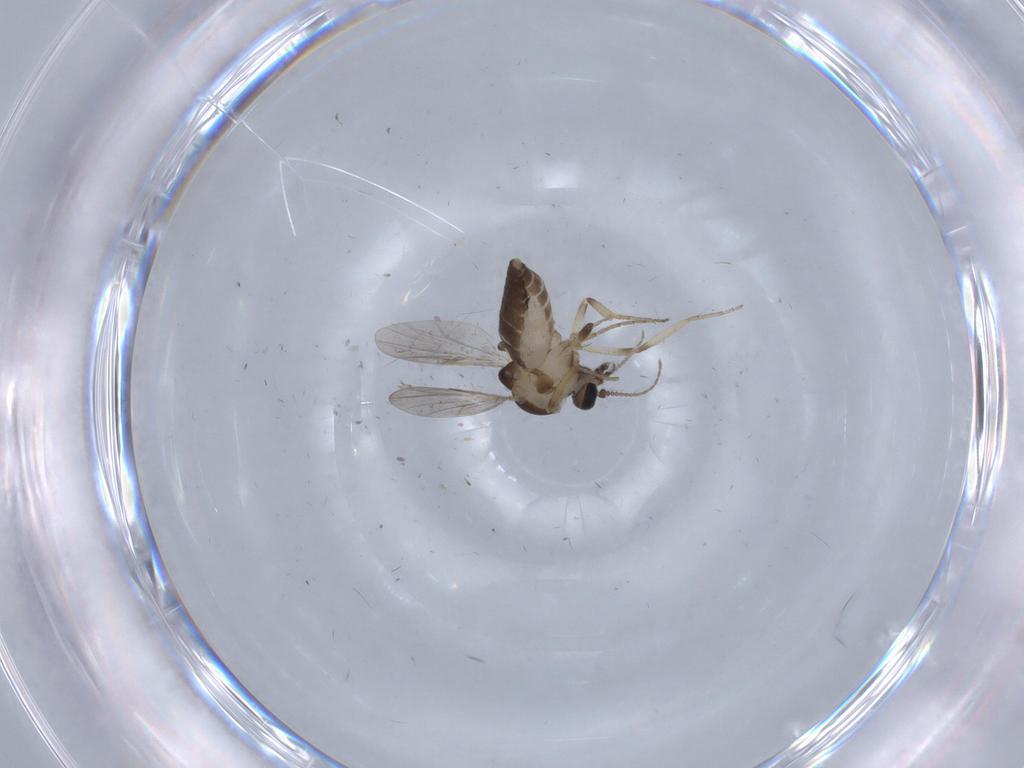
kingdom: Animalia
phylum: Arthropoda
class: Insecta
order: Diptera
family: Ceratopogonidae
